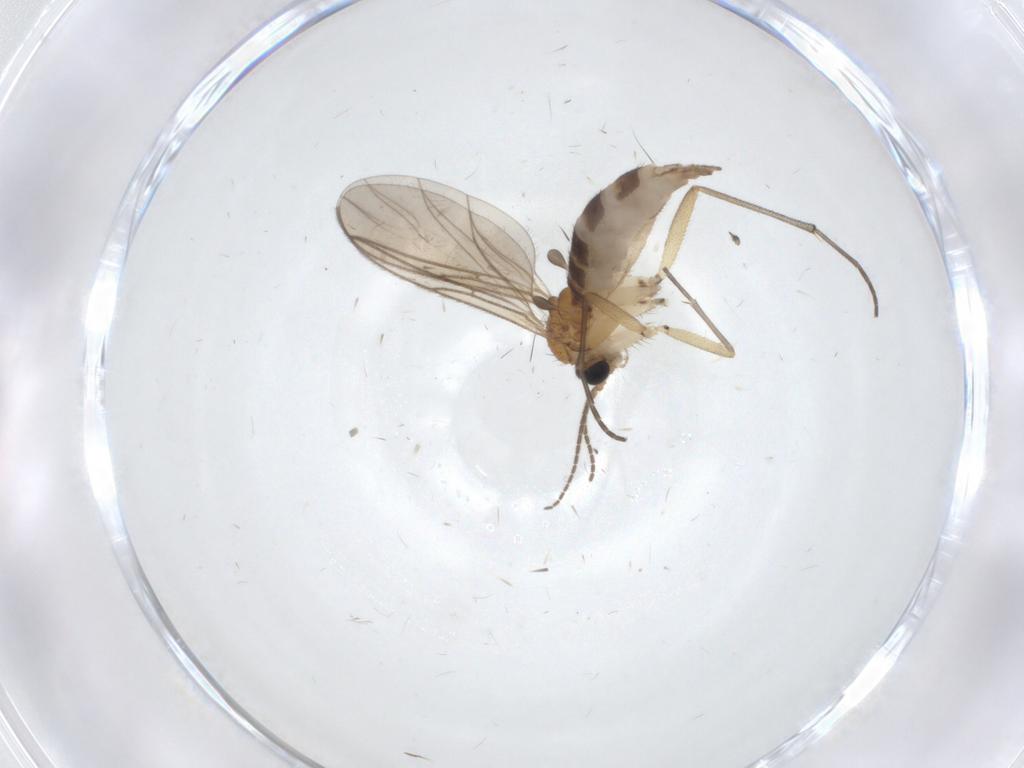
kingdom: Animalia
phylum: Arthropoda
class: Insecta
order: Diptera
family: Sciaridae
